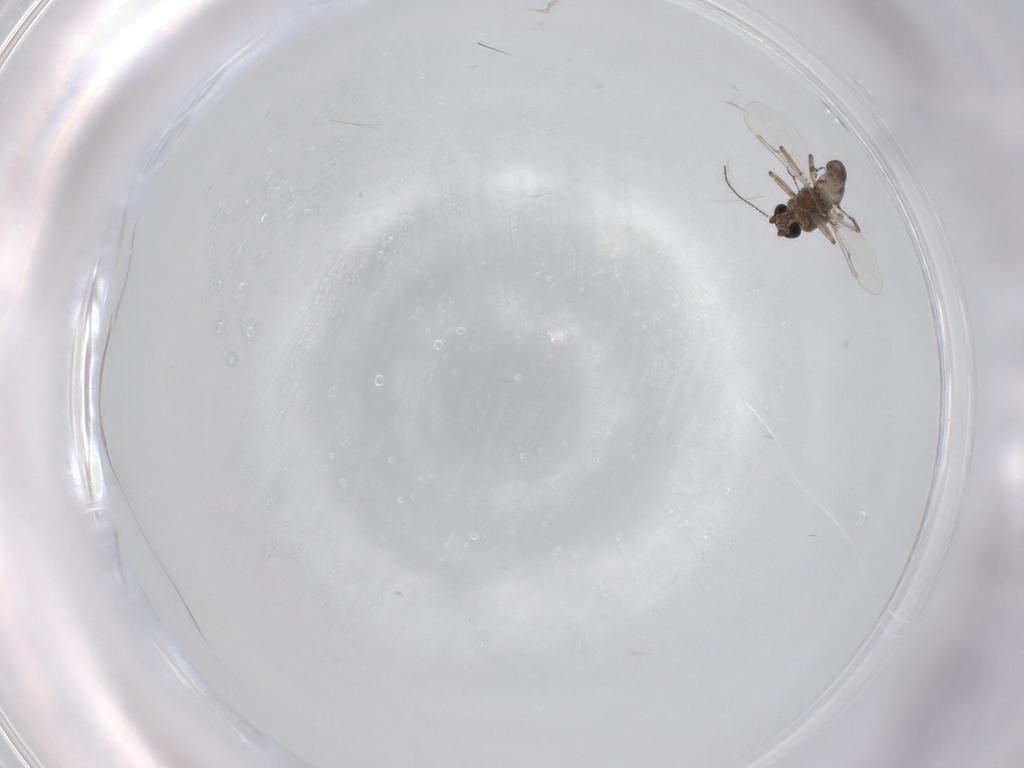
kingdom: Animalia
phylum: Arthropoda
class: Insecta
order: Diptera
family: Ceratopogonidae
